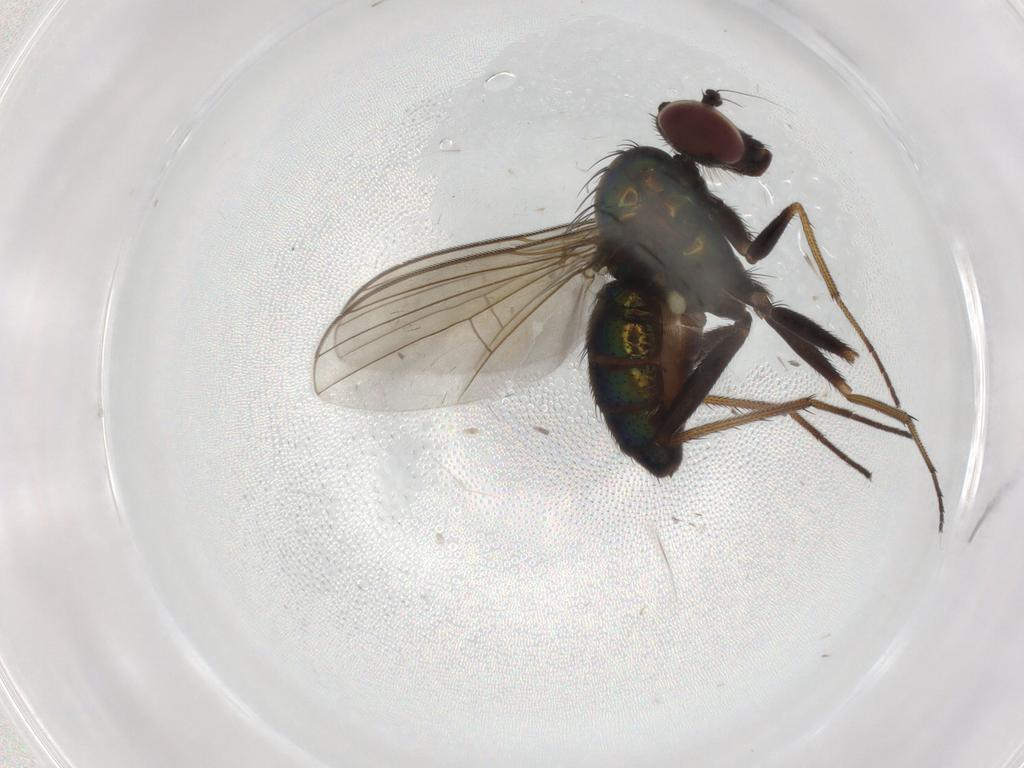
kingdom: Animalia
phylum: Arthropoda
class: Insecta
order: Diptera
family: Dolichopodidae
